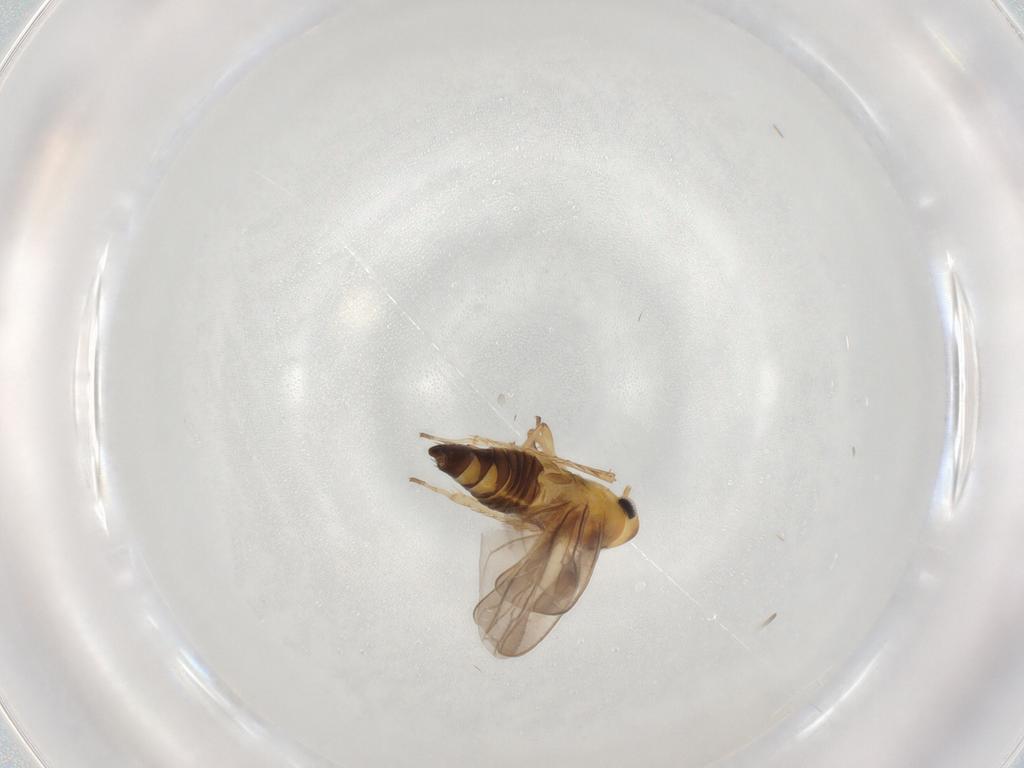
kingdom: Animalia
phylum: Arthropoda
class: Insecta
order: Hemiptera
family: Cicadellidae
